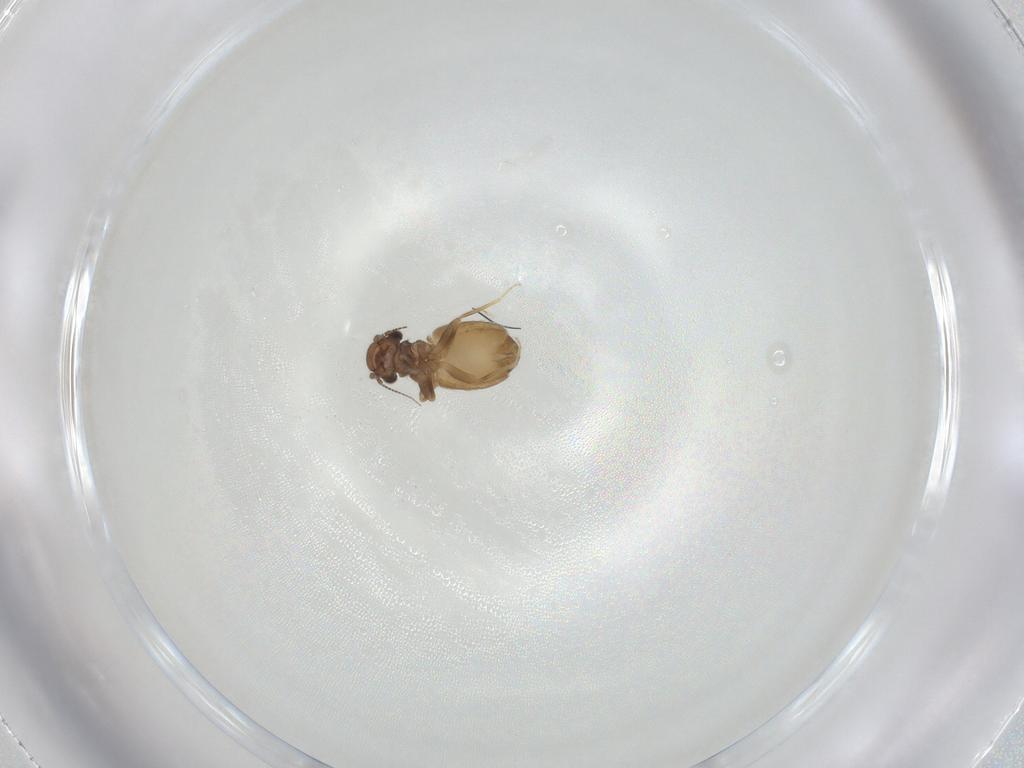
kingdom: Animalia
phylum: Arthropoda
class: Insecta
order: Psocodea
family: Trogiidae
